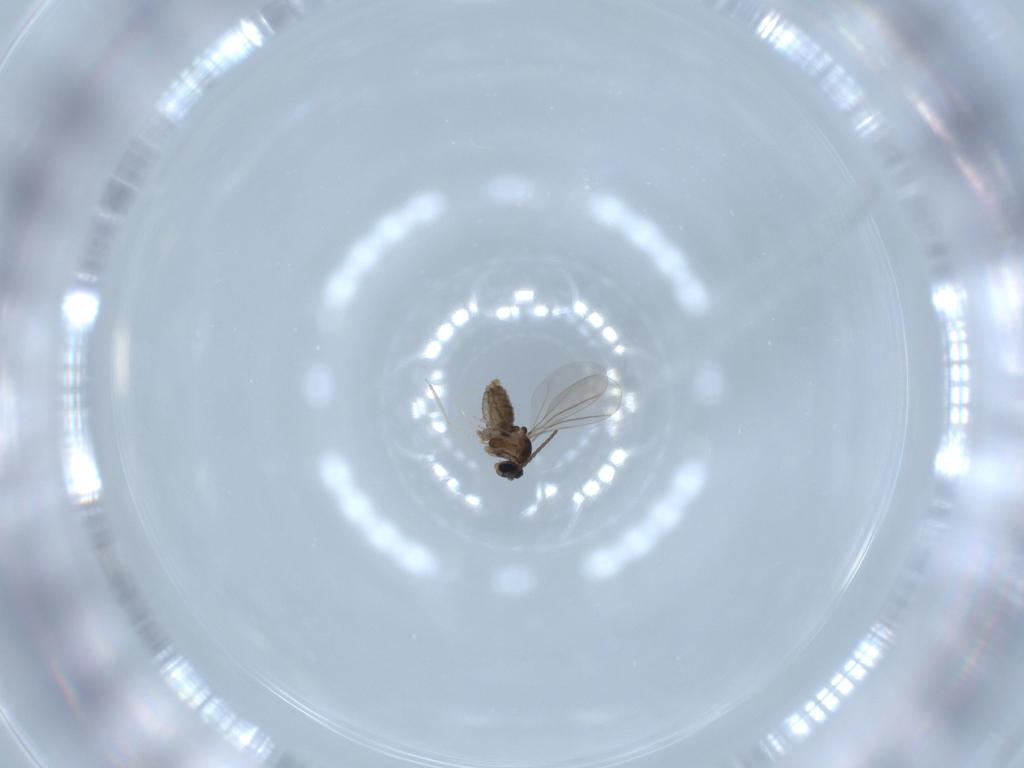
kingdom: Animalia
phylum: Arthropoda
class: Insecta
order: Diptera
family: Cecidomyiidae
